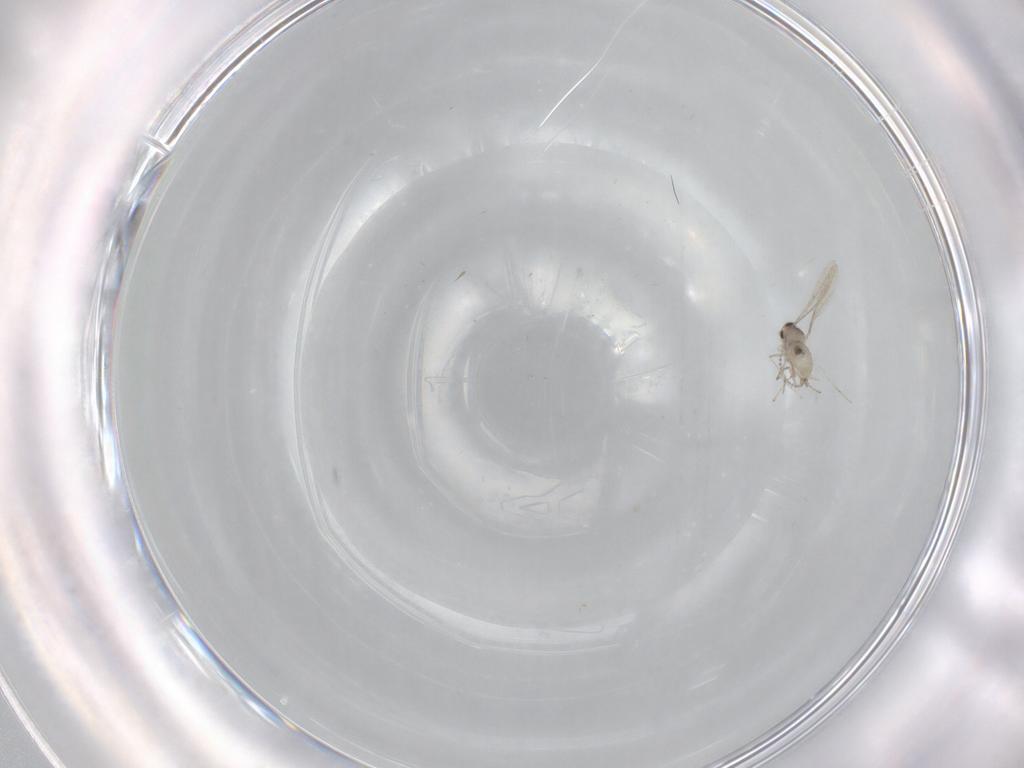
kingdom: Animalia
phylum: Arthropoda
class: Insecta
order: Diptera
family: Cecidomyiidae
